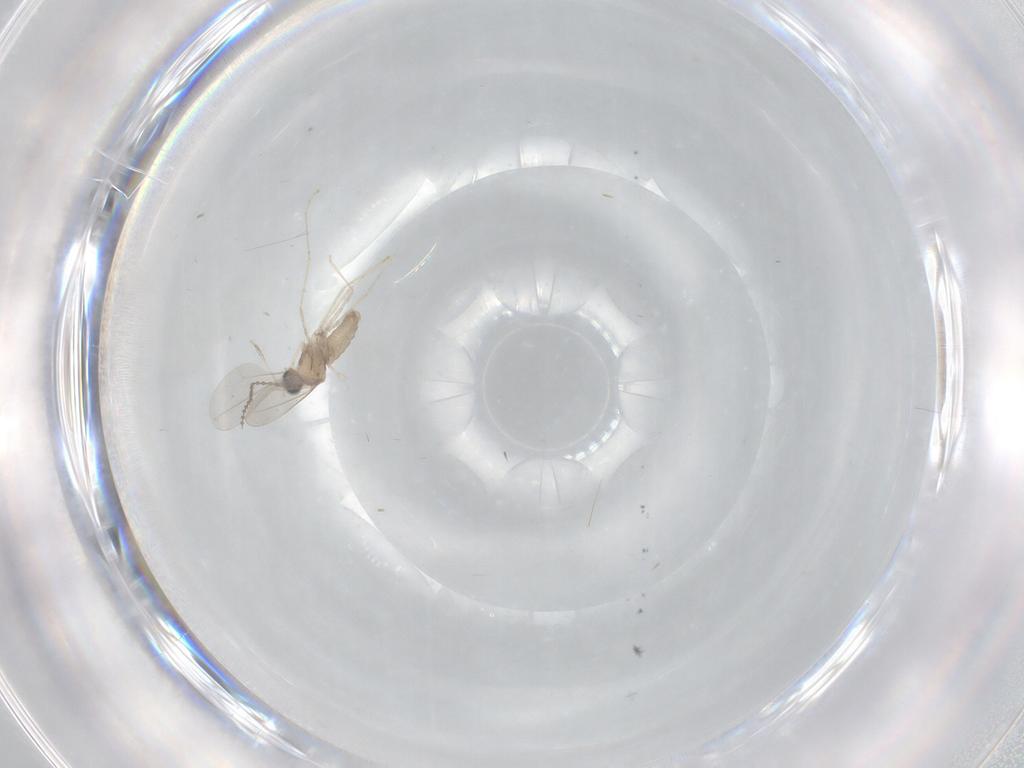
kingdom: Animalia
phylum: Arthropoda
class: Insecta
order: Diptera
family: Cecidomyiidae
